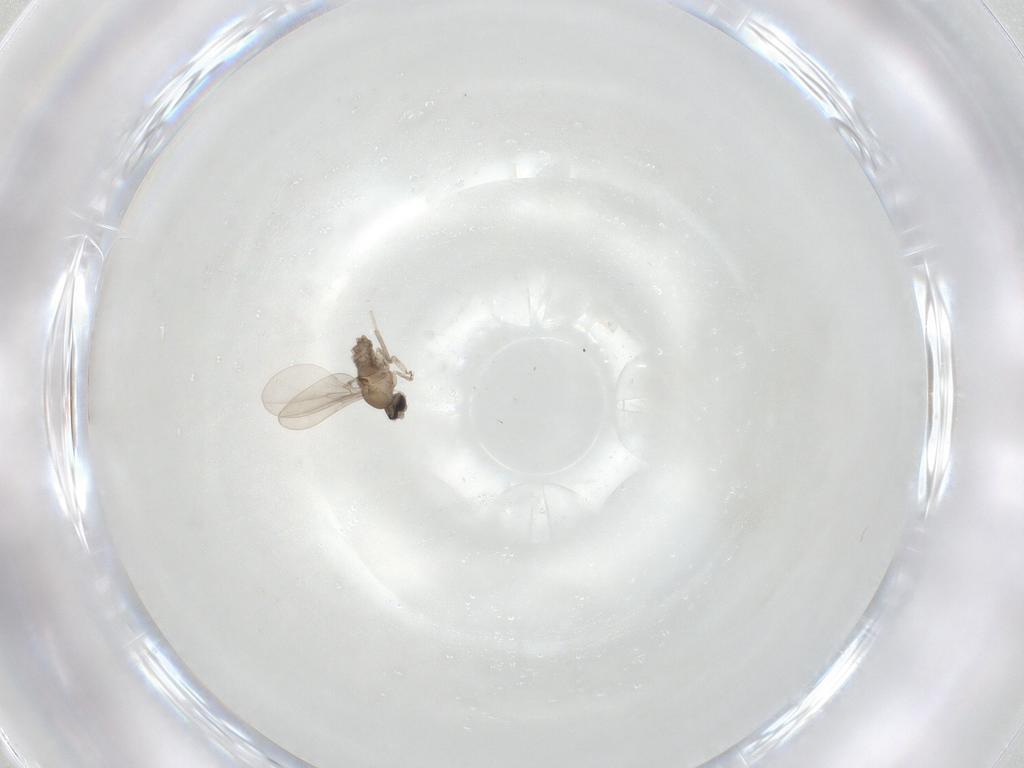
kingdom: Animalia
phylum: Arthropoda
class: Insecta
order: Diptera
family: Cecidomyiidae
